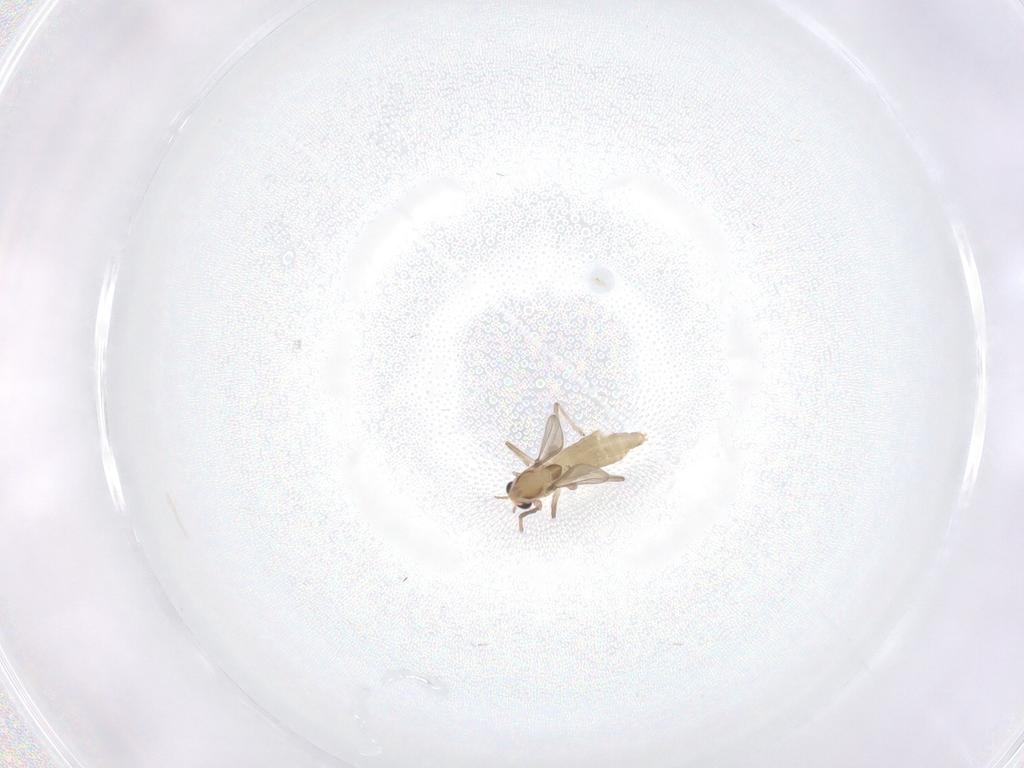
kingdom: Animalia
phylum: Arthropoda
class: Insecta
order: Diptera
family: Chironomidae
